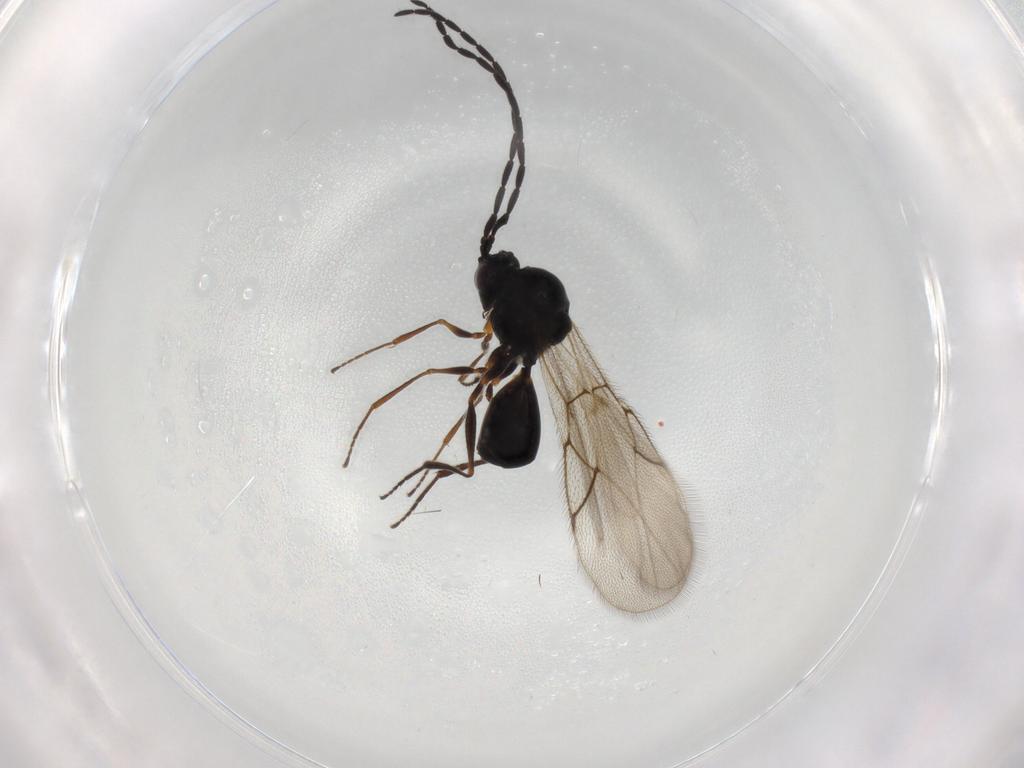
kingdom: Animalia
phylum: Arthropoda
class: Insecta
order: Hymenoptera
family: Figitidae
